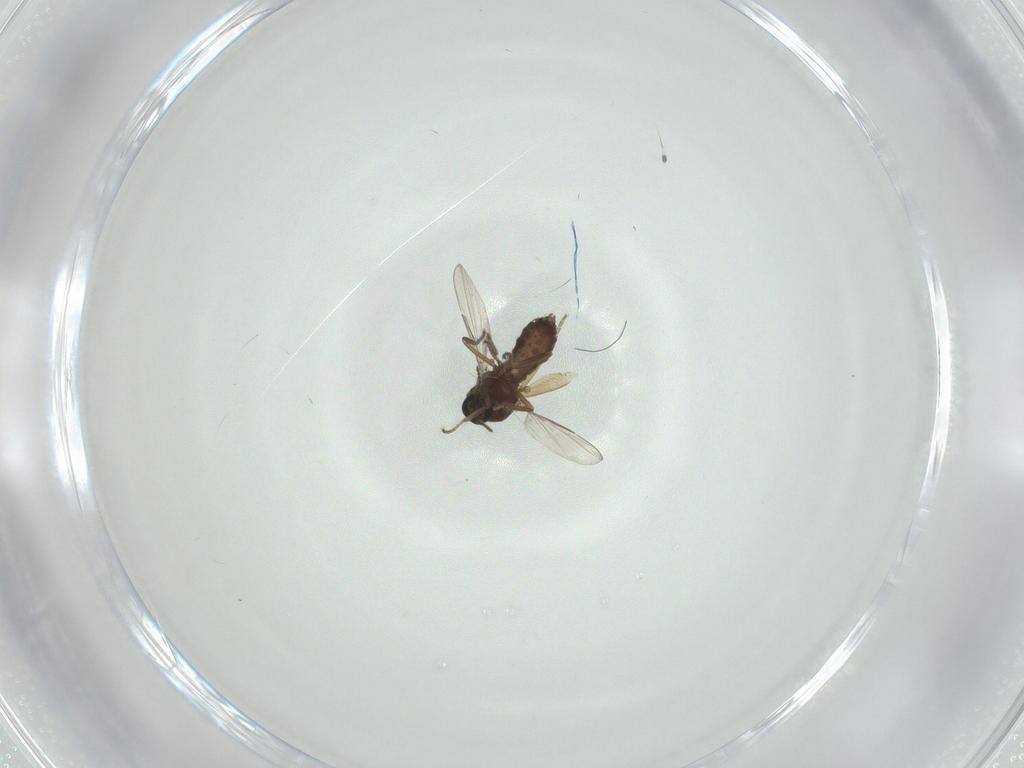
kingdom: Animalia
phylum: Arthropoda
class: Insecta
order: Diptera
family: Ceratopogonidae
